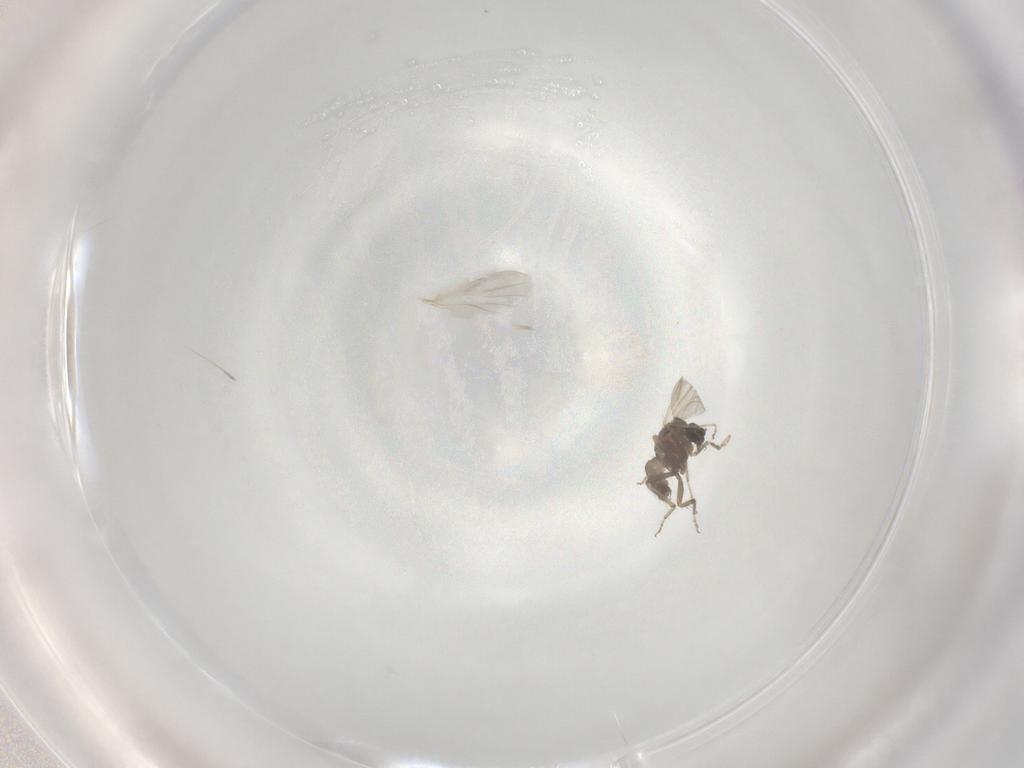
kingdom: Animalia
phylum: Arthropoda
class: Insecta
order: Diptera
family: Ceratopogonidae
